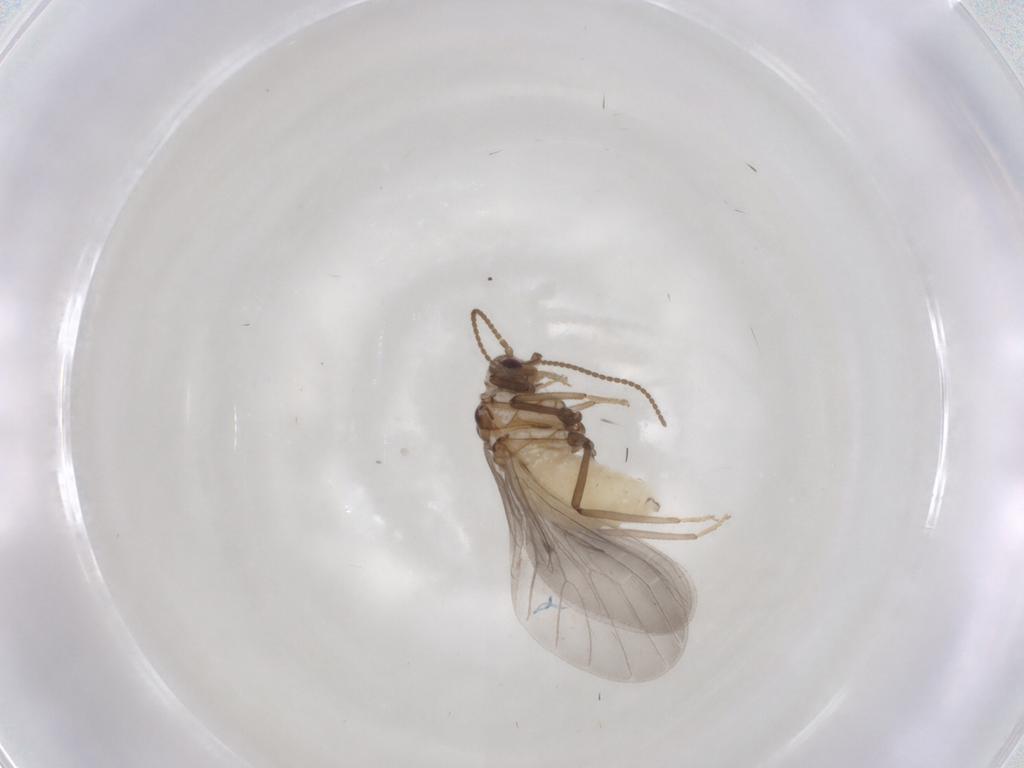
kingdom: Animalia
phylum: Arthropoda
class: Insecta
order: Neuroptera
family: Coniopterygidae
